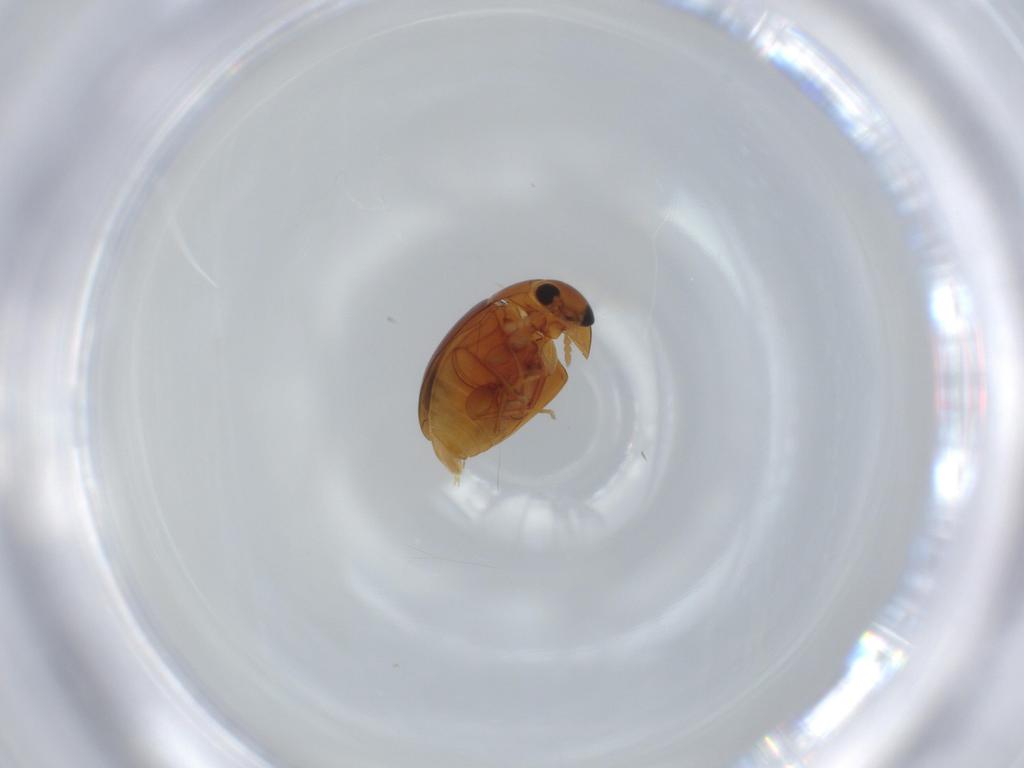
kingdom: Animalia
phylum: Arthropoda
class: Insecta
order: Coleoptera
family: Phalacridae
